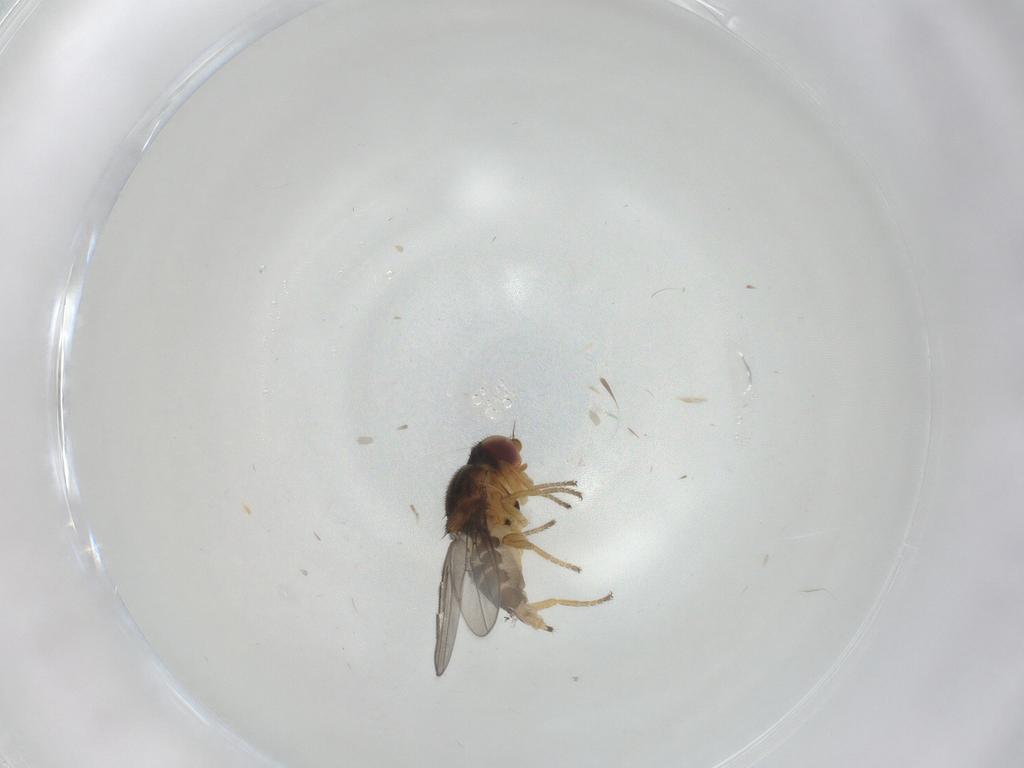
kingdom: Animalia
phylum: Arthropoda
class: Insecta
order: Diptera
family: Chloropidae
